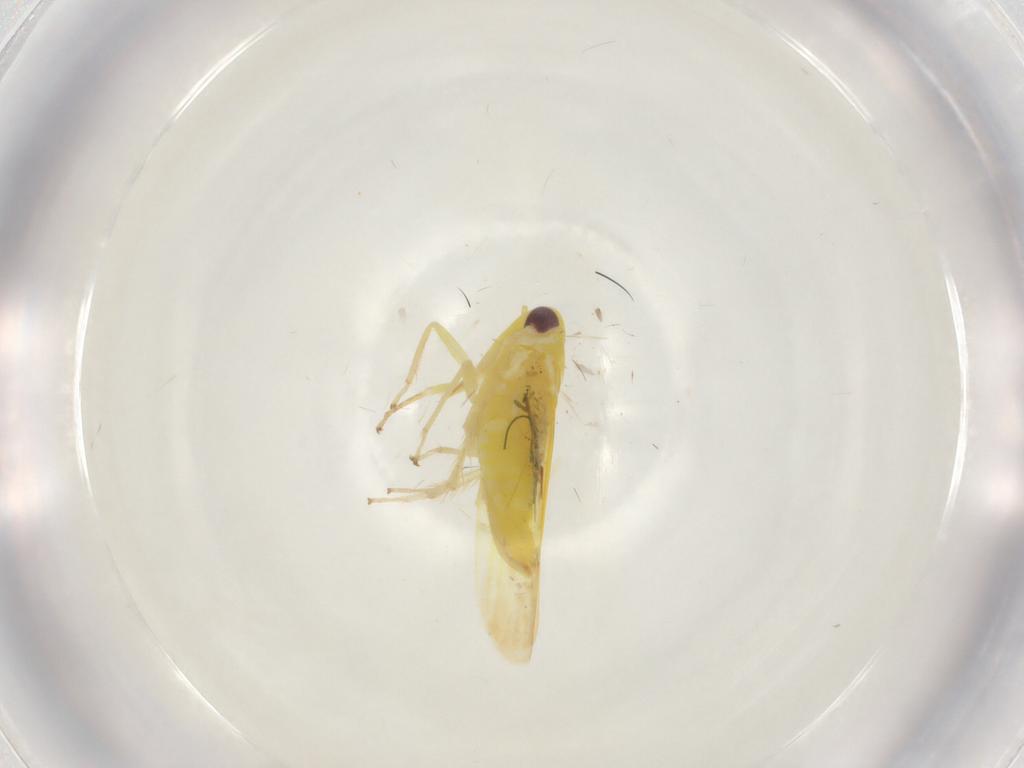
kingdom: Animalia
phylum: Arthropoda
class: Insecta
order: Hemiptera
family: Cicadellidae
